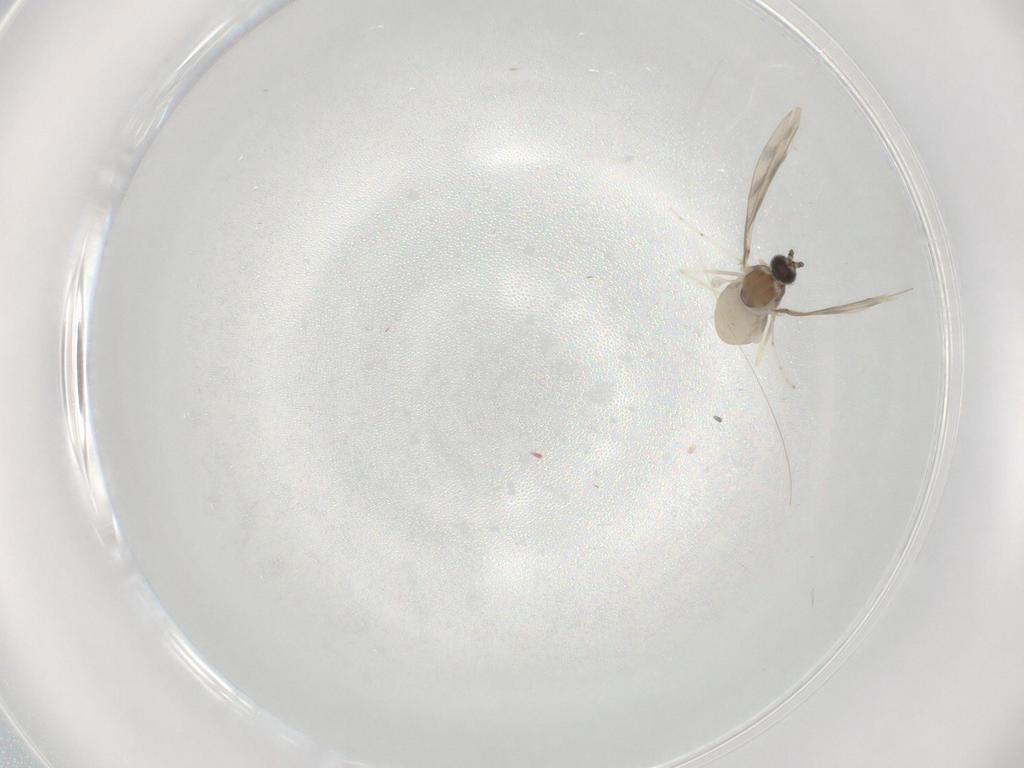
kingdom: Animalia
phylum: Arthropoda
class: Insecta
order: Diptera
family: Cecidomyiidae
